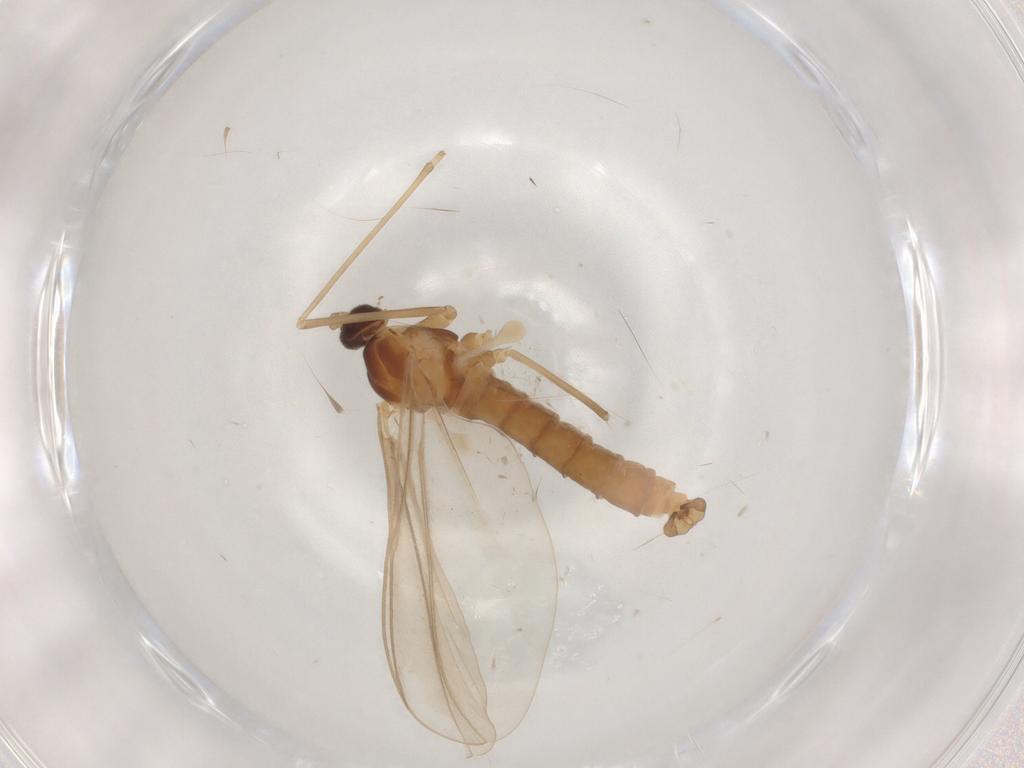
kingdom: Animalia
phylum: Arthropoda
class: Insecta
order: Diptera
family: Cecidomyiidae
